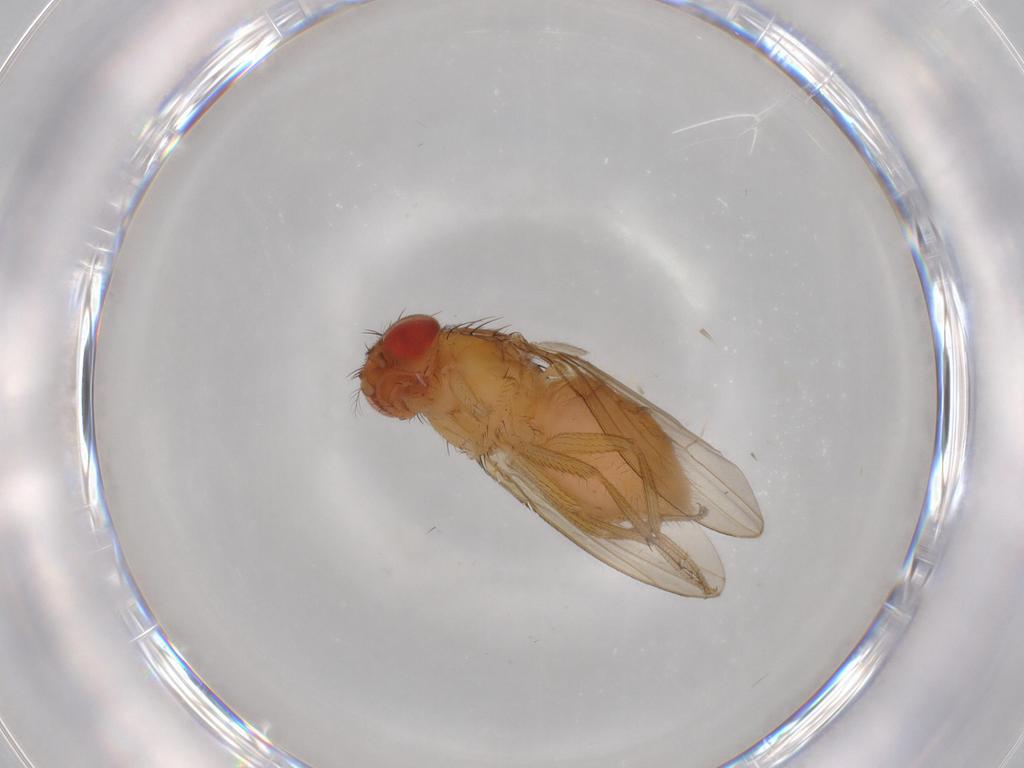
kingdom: Animalia
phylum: Arthropoda
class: Insecta
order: Diptera
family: Drosophilidae
